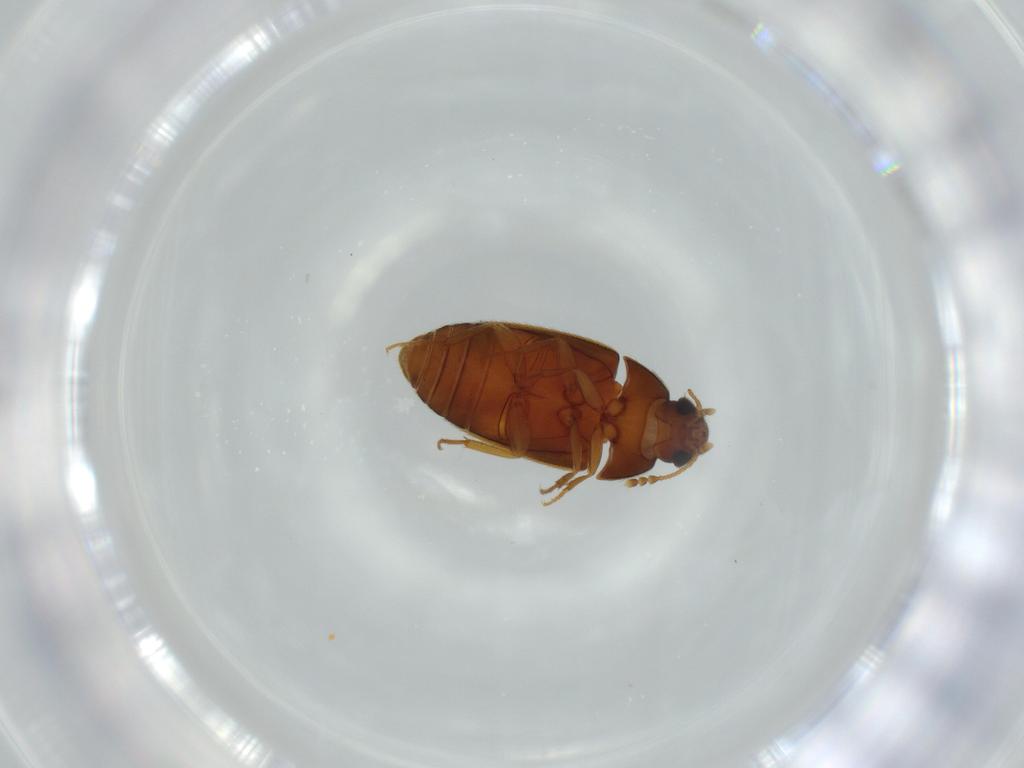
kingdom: Animalia
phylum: Arthropoda
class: Insecta
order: Coleoptera
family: Mycetophagidae
